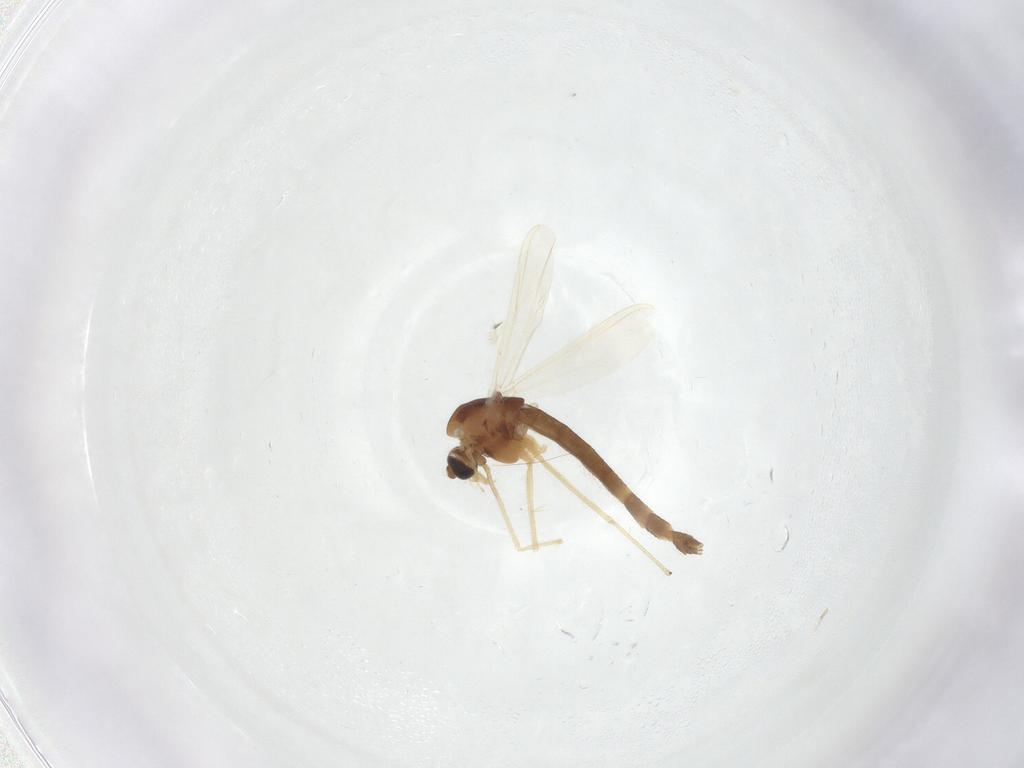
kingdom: Animalia
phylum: Arthropoda
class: Insecta
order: Diptera
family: Chironomidae
